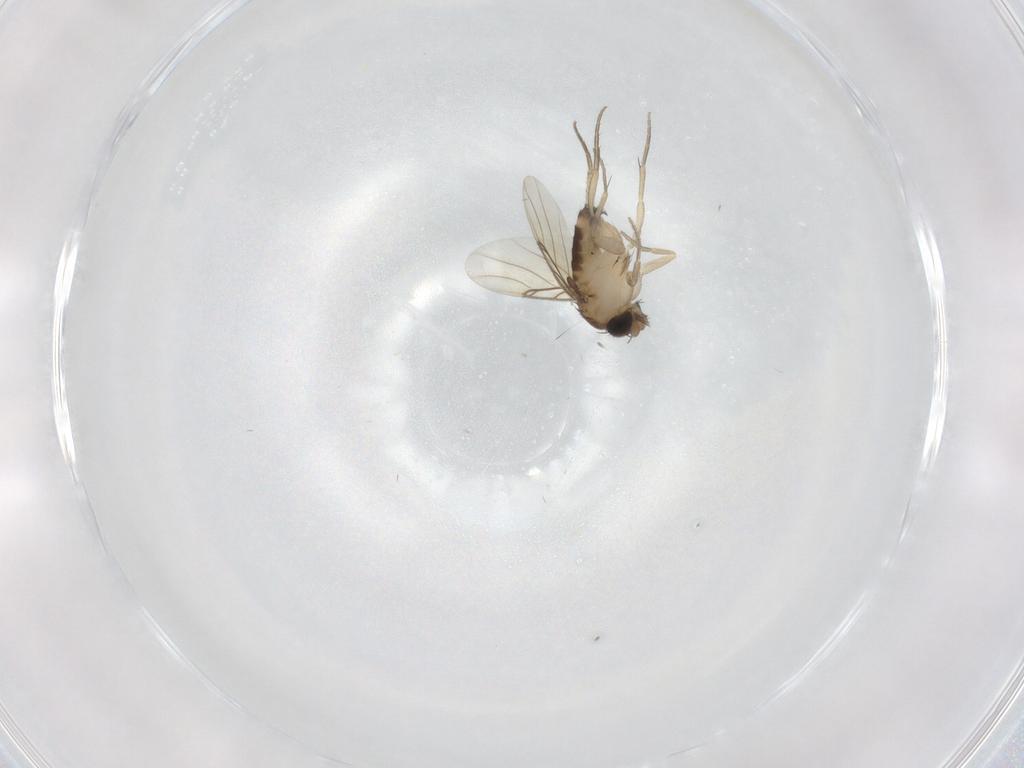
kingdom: Animalia
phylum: Arthropoda
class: Insecta
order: Diptera
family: Phoridae
